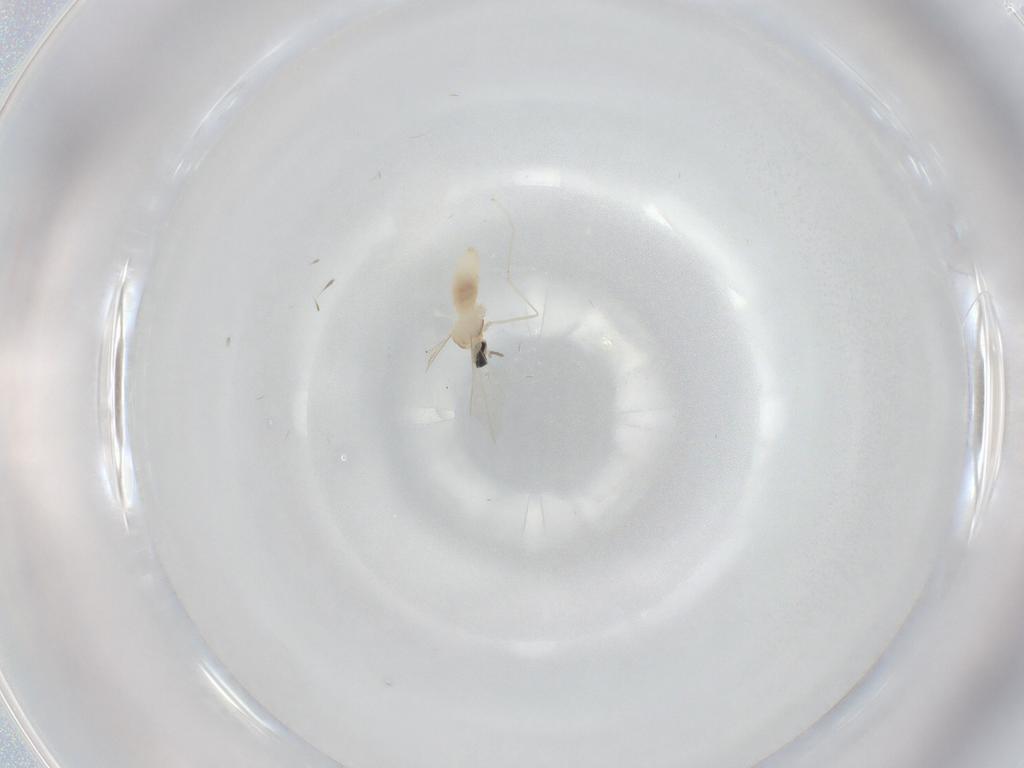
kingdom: Animalia
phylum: Arthropoda
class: Insecta
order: Diptera
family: Cecidomyiidae
